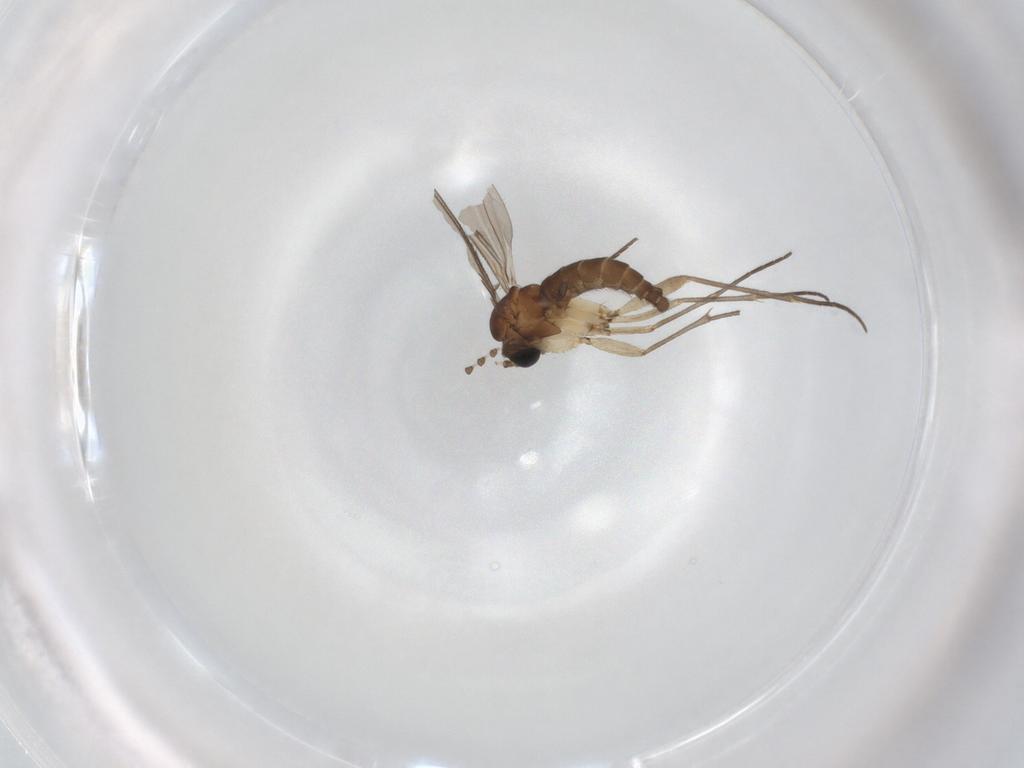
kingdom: Animalia
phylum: Arthropoda
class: Insecta
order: Diptera
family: Sciaridae
